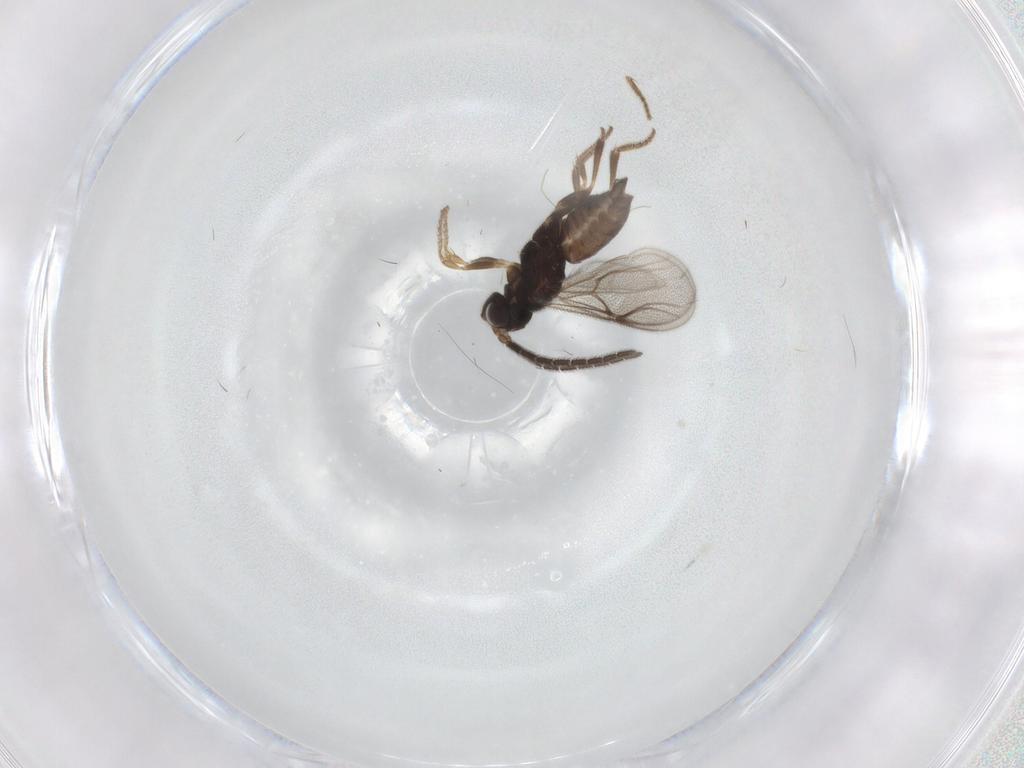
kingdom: Animalia
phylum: Arthropoda
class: Insecta
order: Hymenoptera
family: Dryinidae
